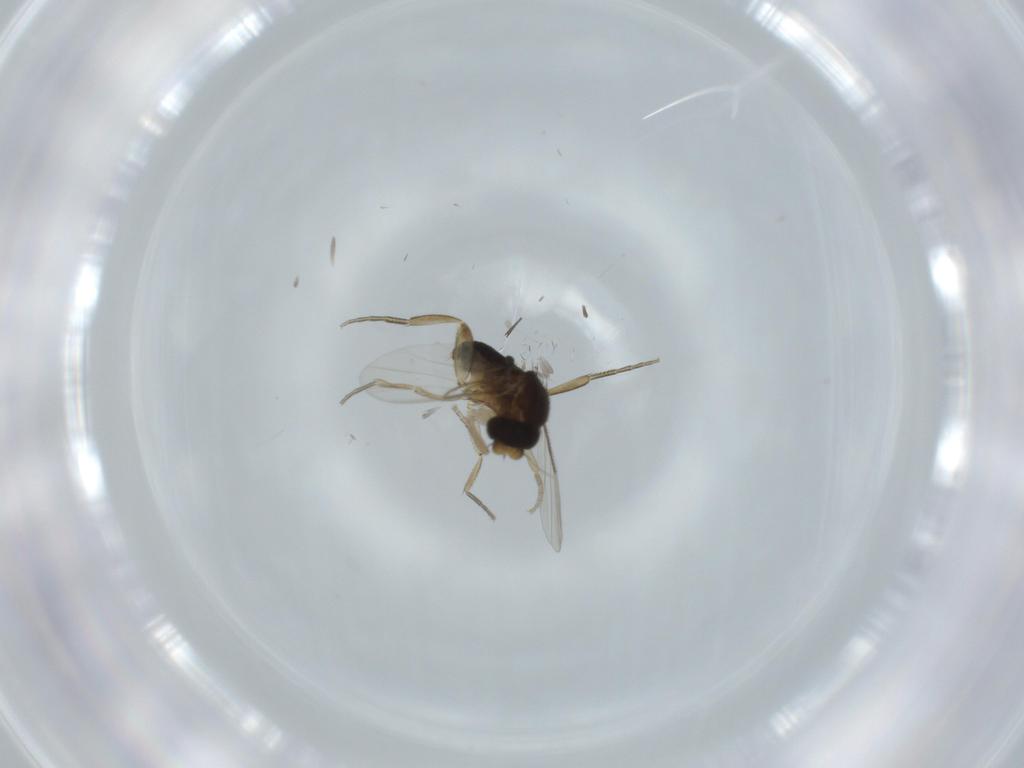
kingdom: Animalia
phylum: Arthropoda
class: Insecta
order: Diptera
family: Phoridae
